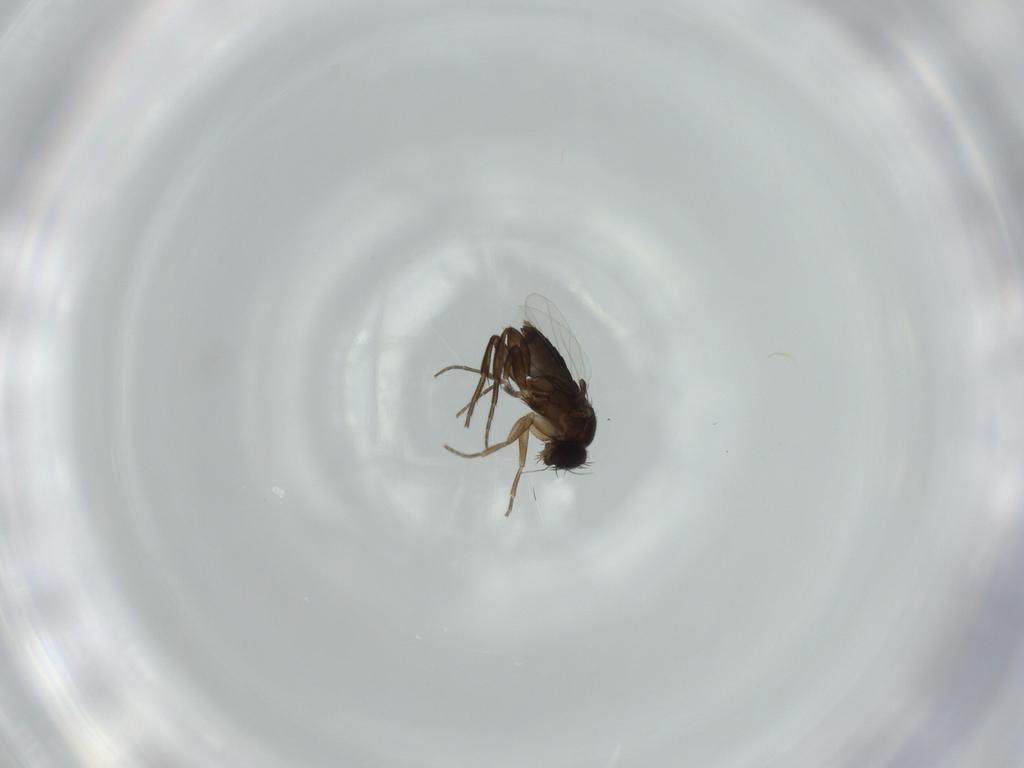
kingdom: Animalia
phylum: Arthropoda
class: Insecta
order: Diptera
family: Phoridae
